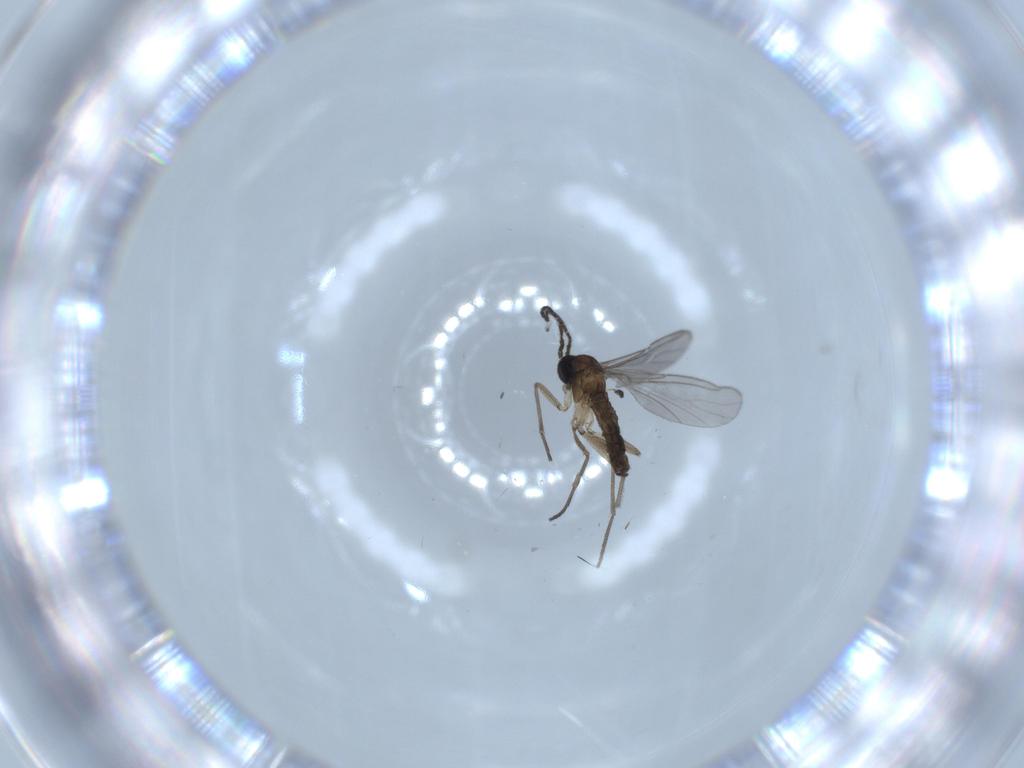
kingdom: Animalia
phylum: Arthropoda
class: Insecta
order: Diptera
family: Sciaridae
